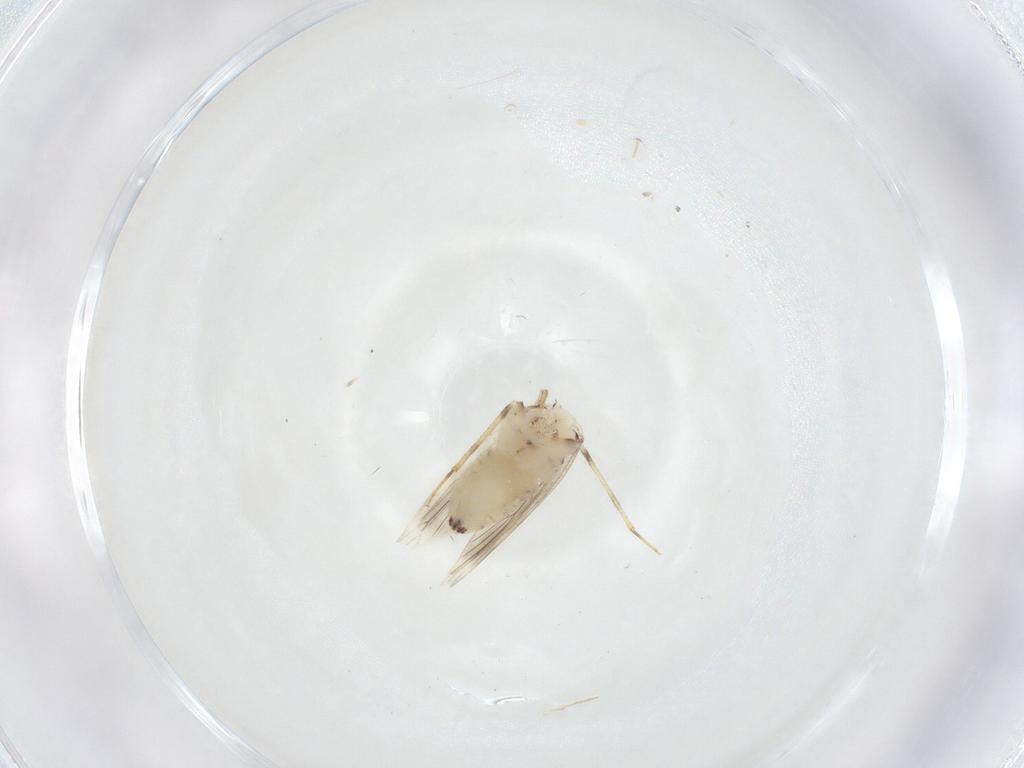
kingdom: Animalia
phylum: Arthropoda
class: Insecta
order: Psocodea
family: Lepidopsocidae
